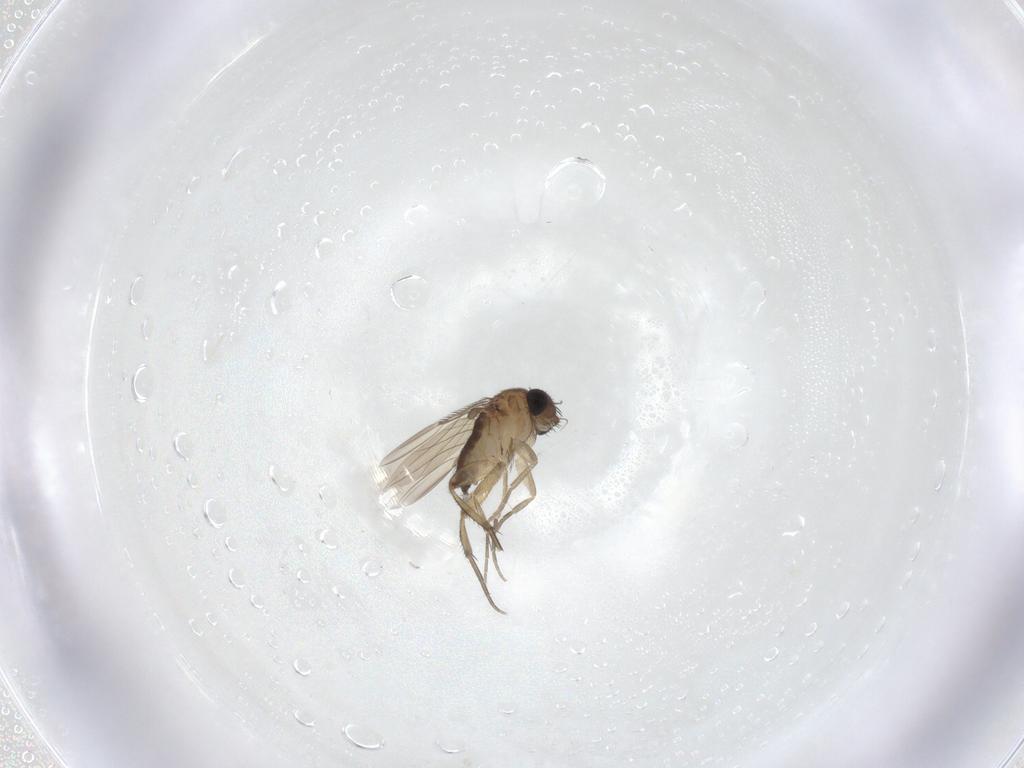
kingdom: Animalia
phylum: Arthropoda
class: Insecta
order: Diptera
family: Phoridae
